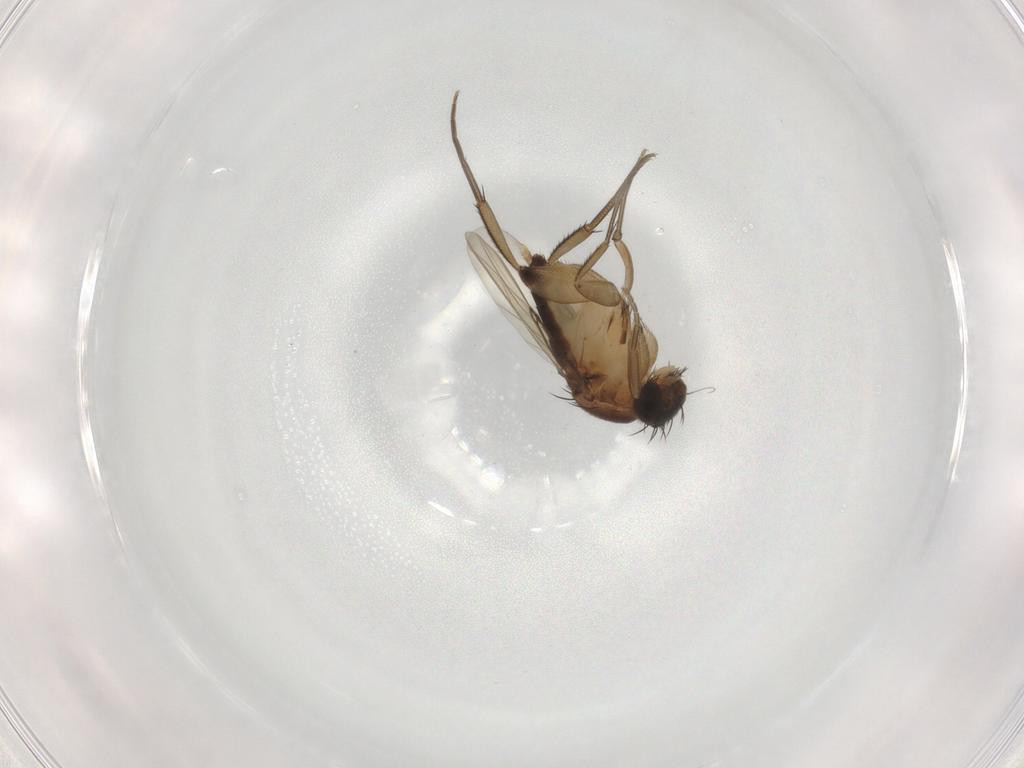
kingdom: Animalia
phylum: Arthropoda
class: Insecta
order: Diptera
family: Phoridae
